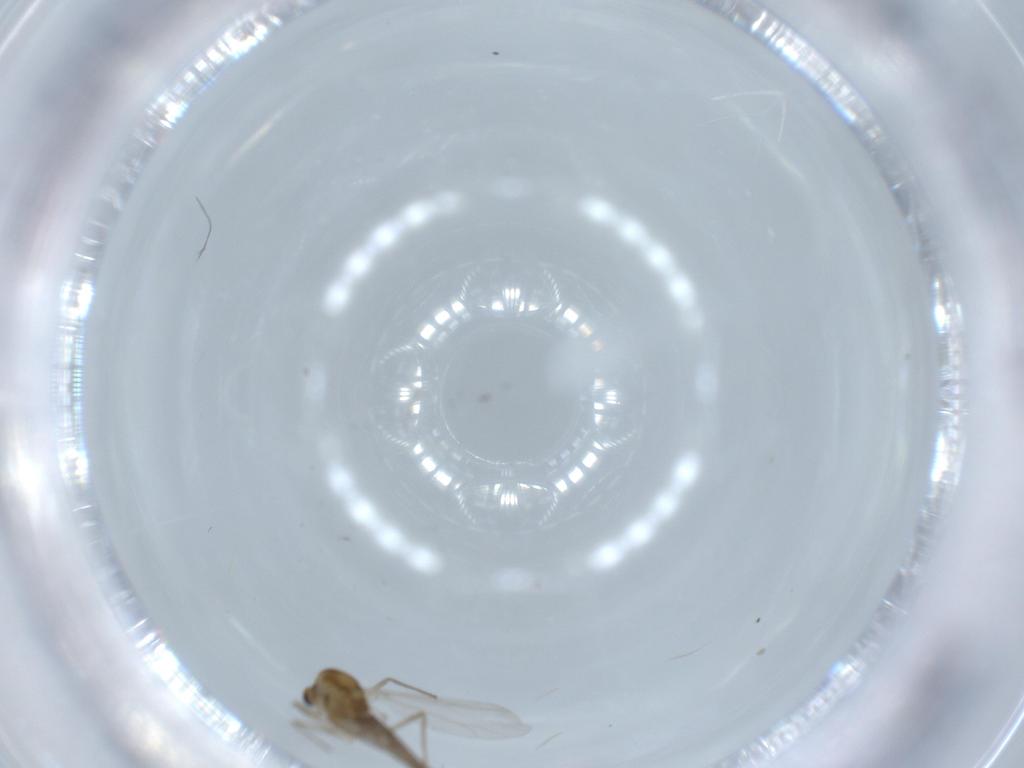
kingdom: Animalia
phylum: Arthropoda
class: Insecta
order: Diptera
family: Chironomidae
